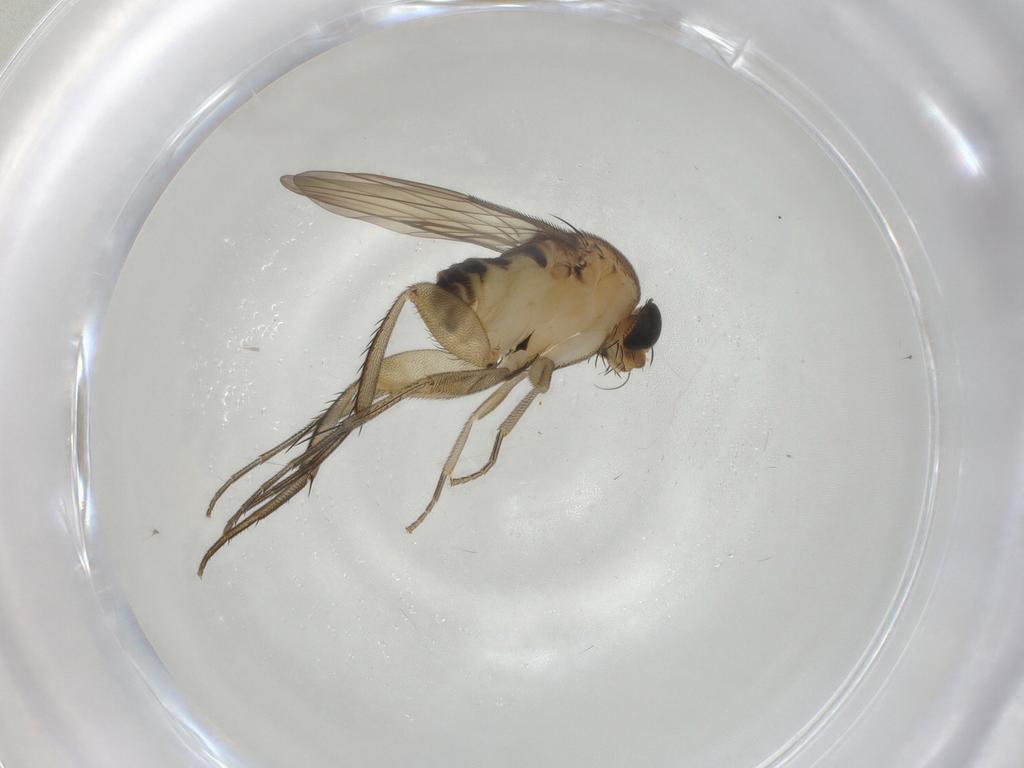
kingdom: Animalia
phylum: Arthropoda
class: Insecta
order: Diptera
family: Phoridae
